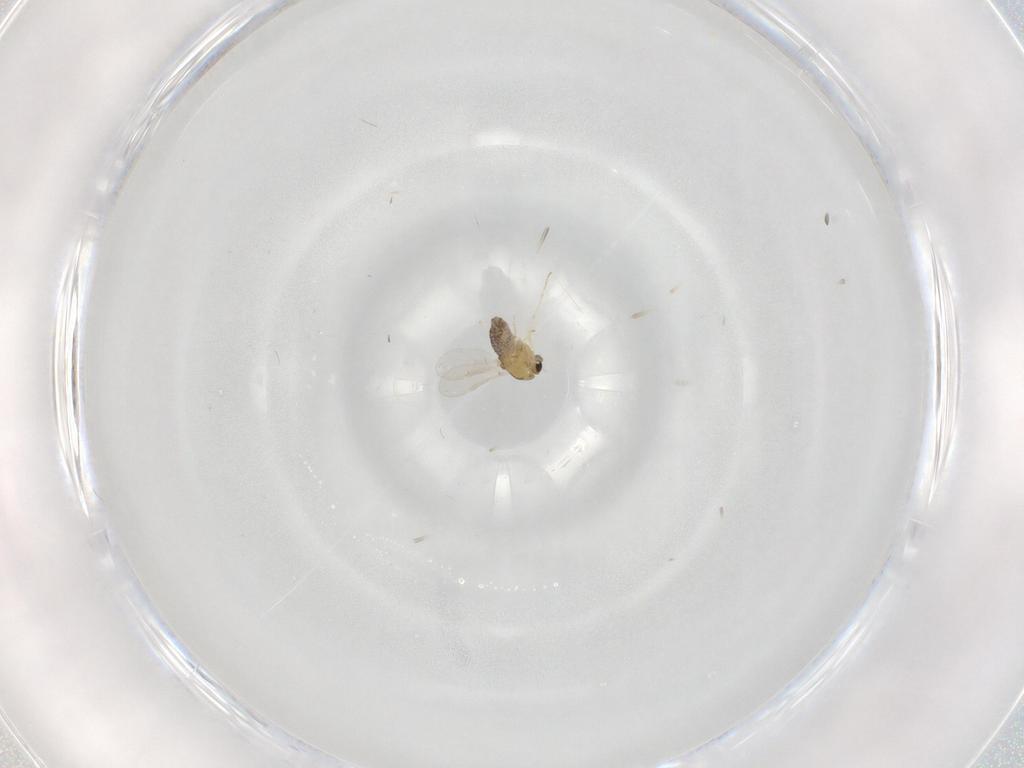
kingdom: Animalia
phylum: Arthropoda
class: Insecta
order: Diptera
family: Chironomidae
